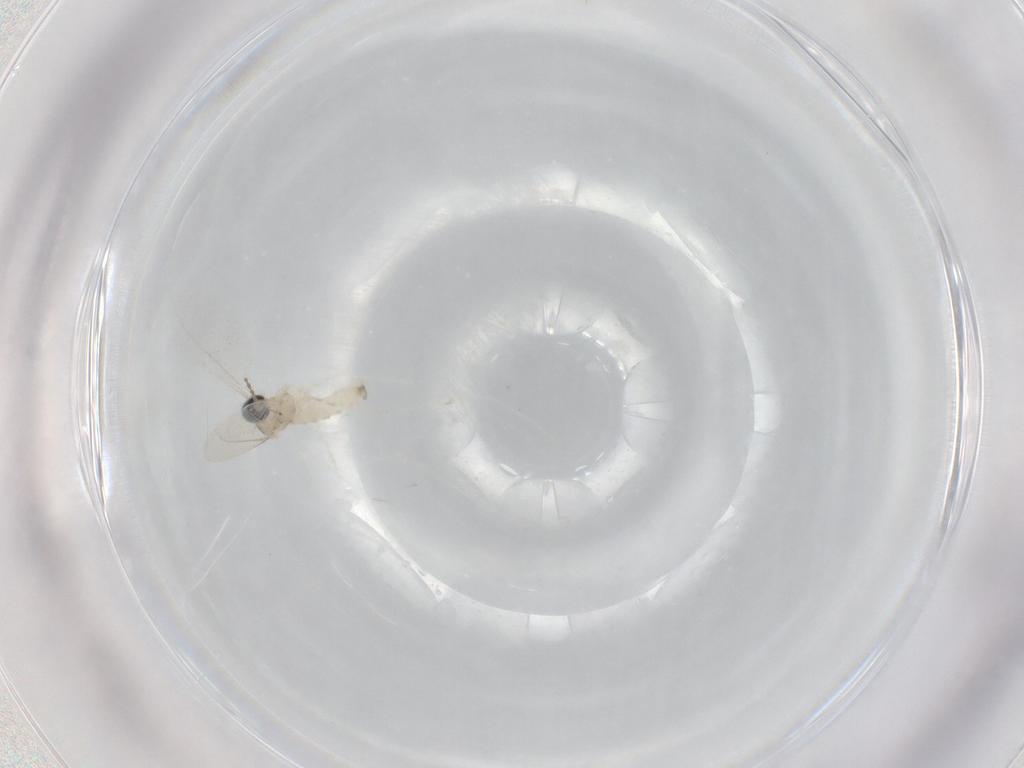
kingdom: Animalia
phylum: Arthropoda
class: Insecta
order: Diptera
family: Cecidomyiidae
